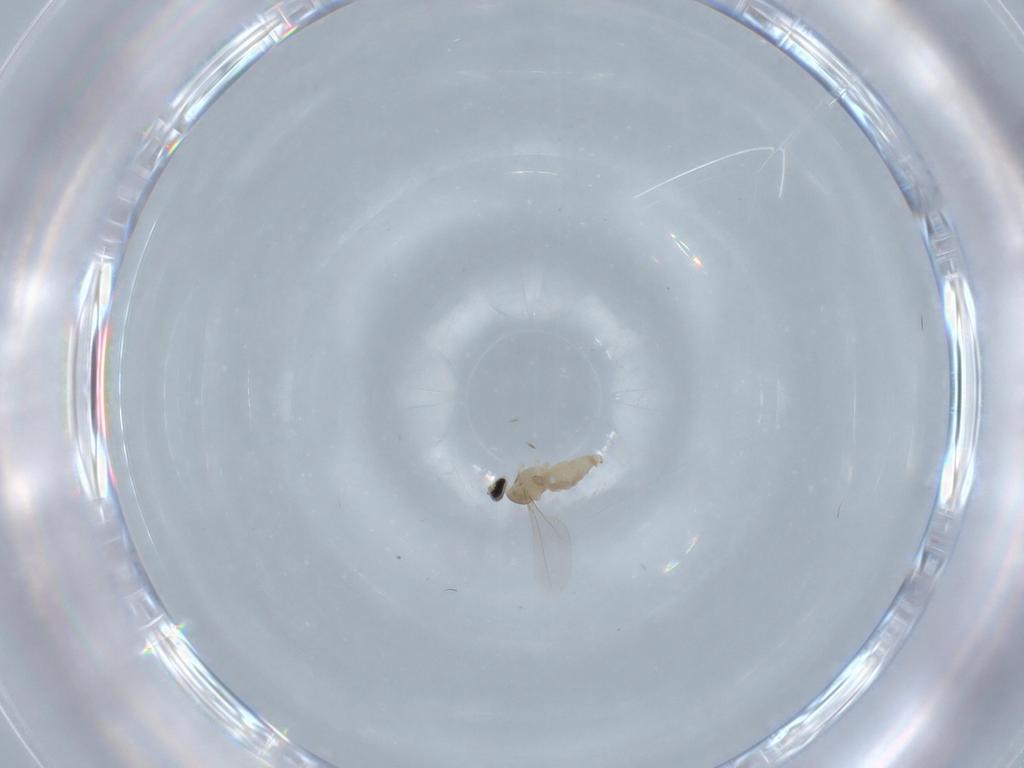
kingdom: Animalia
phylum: Arthropoda
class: Insecta
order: Diptera
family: Cecidomyiidae
